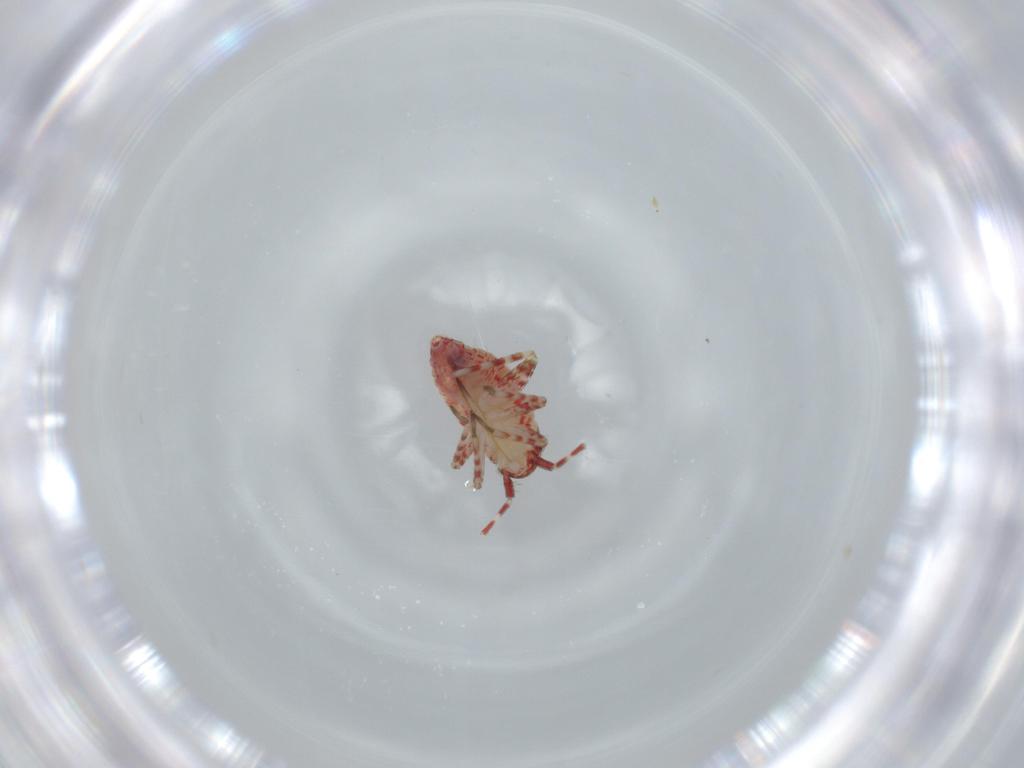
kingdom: Animalia
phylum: Arthropoda
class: Insecta
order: Hemiptera
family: Miridae
